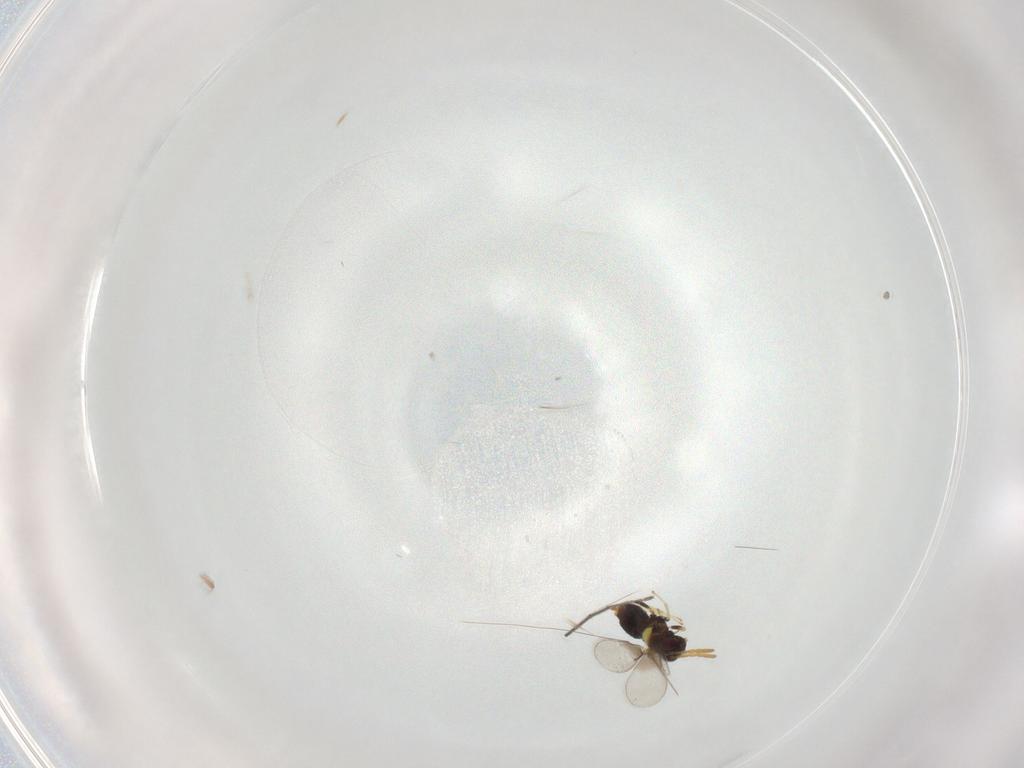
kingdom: Animalia
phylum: Arthropoda
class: Insecta
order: Hymenoptera
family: Aphelinidae
